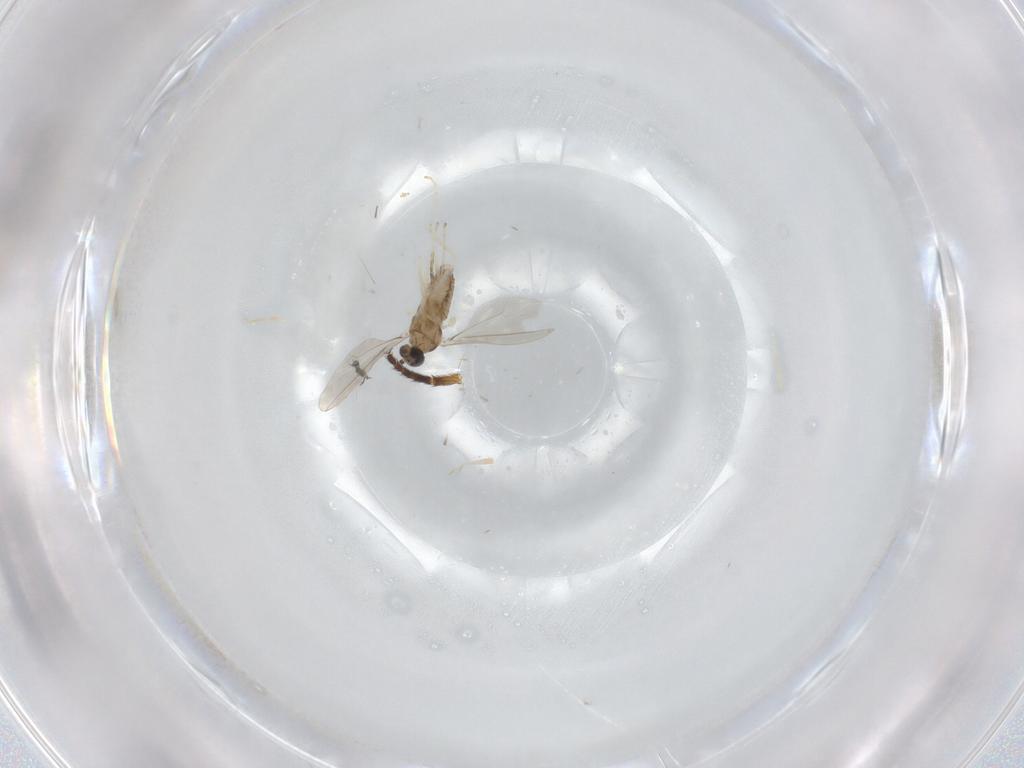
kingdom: Animalia
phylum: Arthropoda
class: Insecta
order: Diptera
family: Cecidomyiidae
